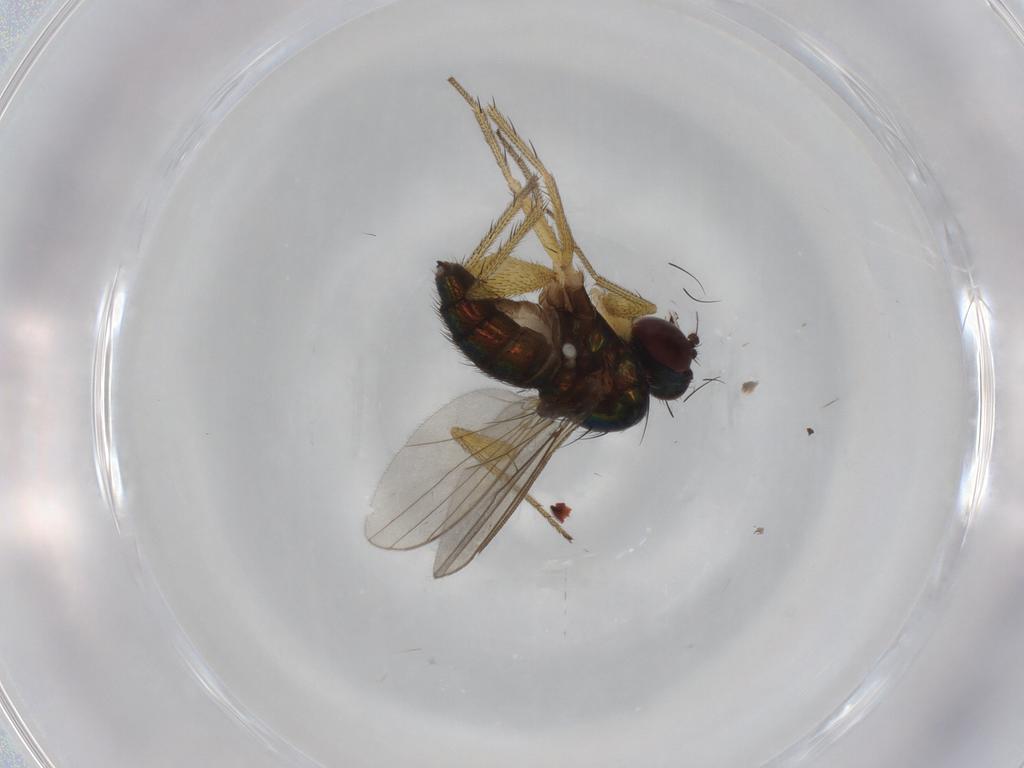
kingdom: Animalia
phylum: Arthropoda
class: Insecta
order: Diptera
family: Dolichopodidae
